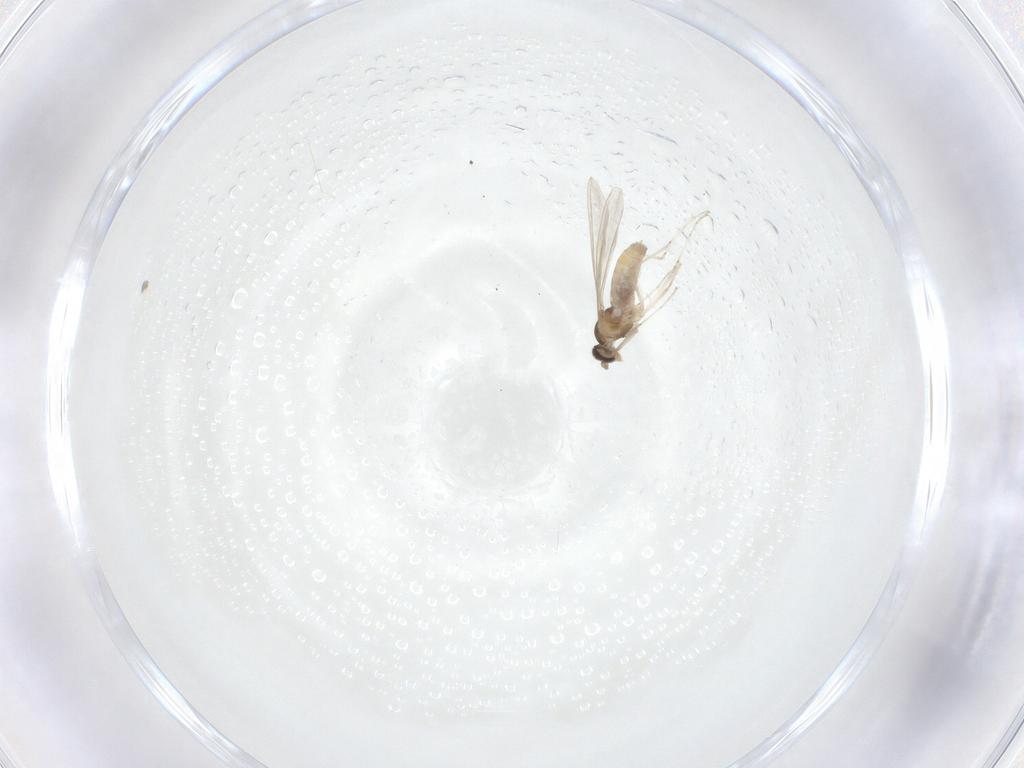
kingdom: Animalia
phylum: Arthropoda
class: Insecta
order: Diptera
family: Cecidomyiidae
